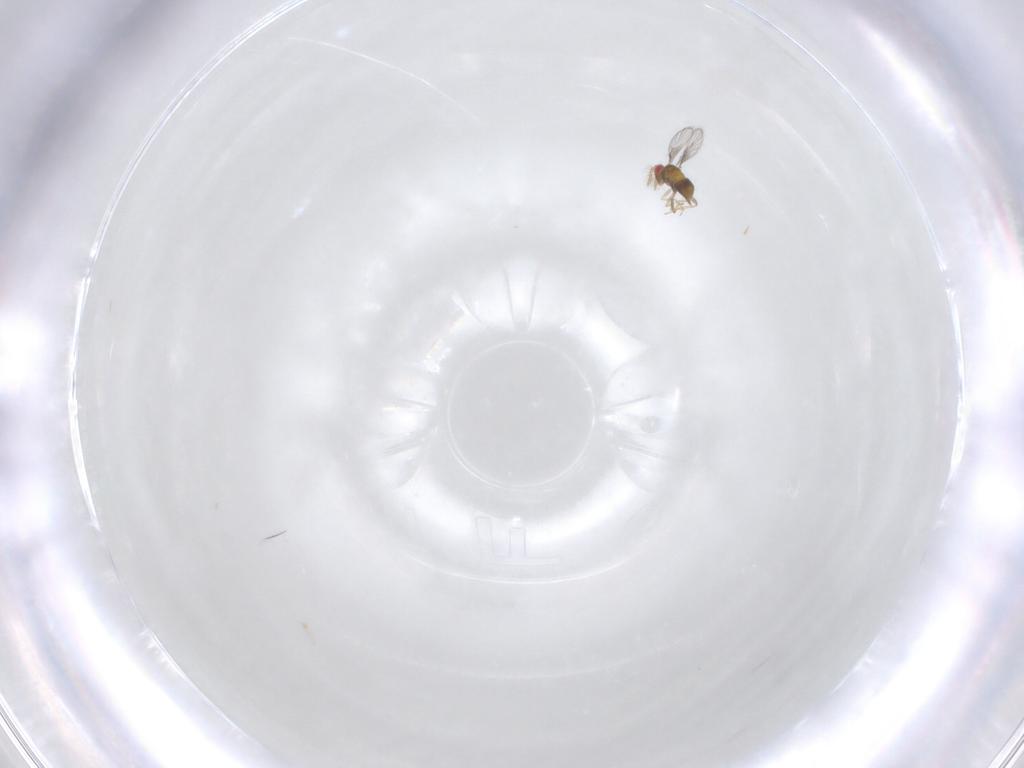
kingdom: Animalia
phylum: Arthropoda
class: Insecta
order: Hymenoptera
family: Trichogrammatidae
